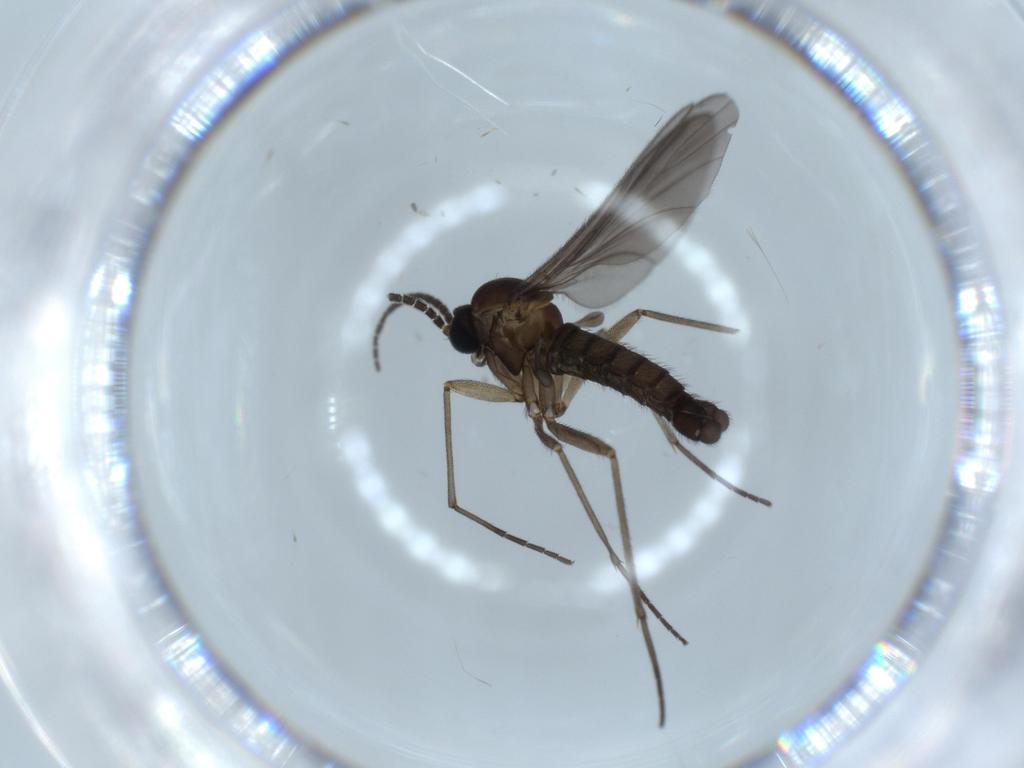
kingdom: Animalia
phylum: Arthropoda
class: Insecta
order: Diptera
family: Sciaridae
